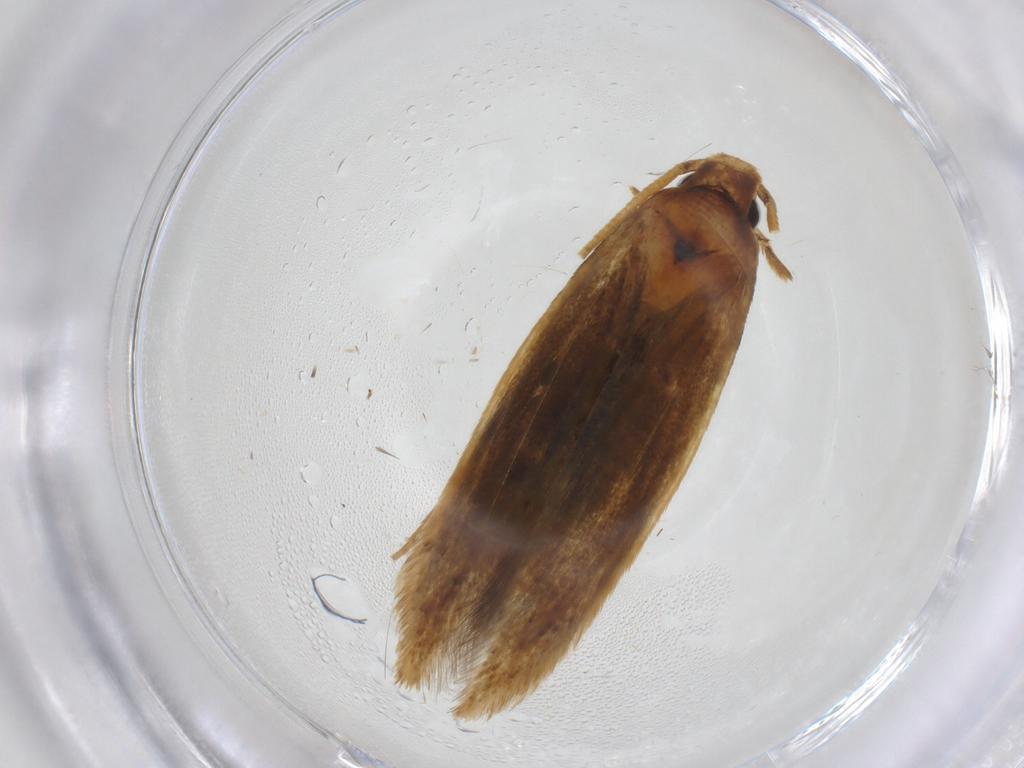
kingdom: Animalia
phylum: Arthropoda
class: Insecta
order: Lepidoptera
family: Tineidae
